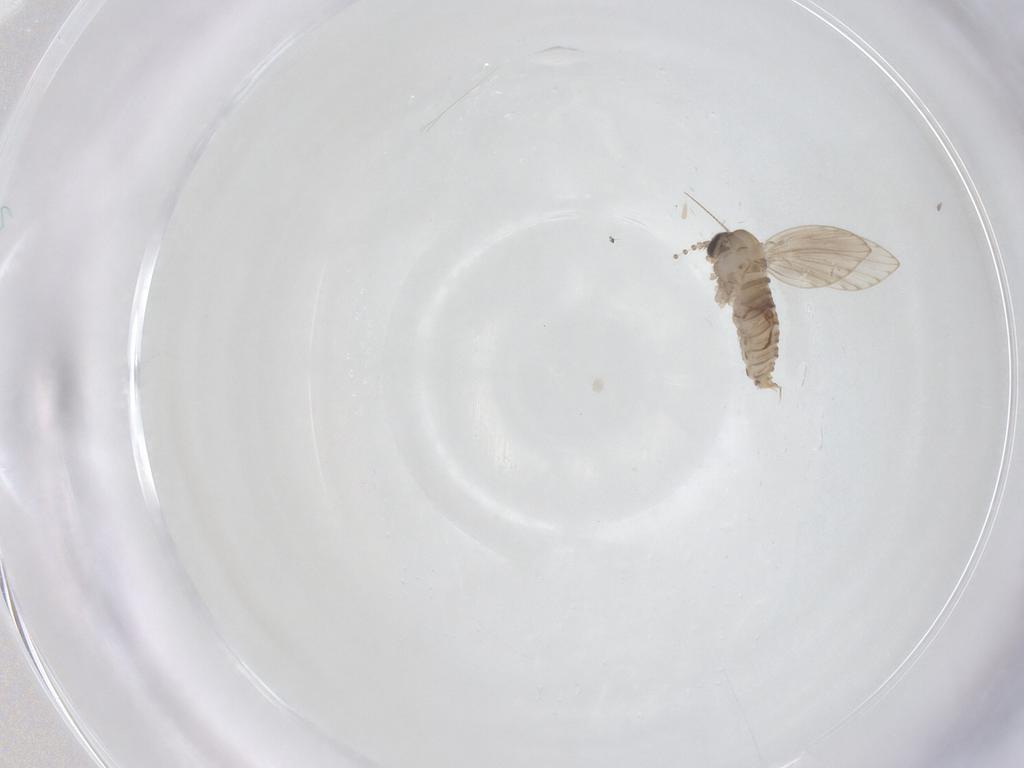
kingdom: Animalia
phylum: Arthropoda
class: Insecta
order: Diptera
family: Psychodidae
